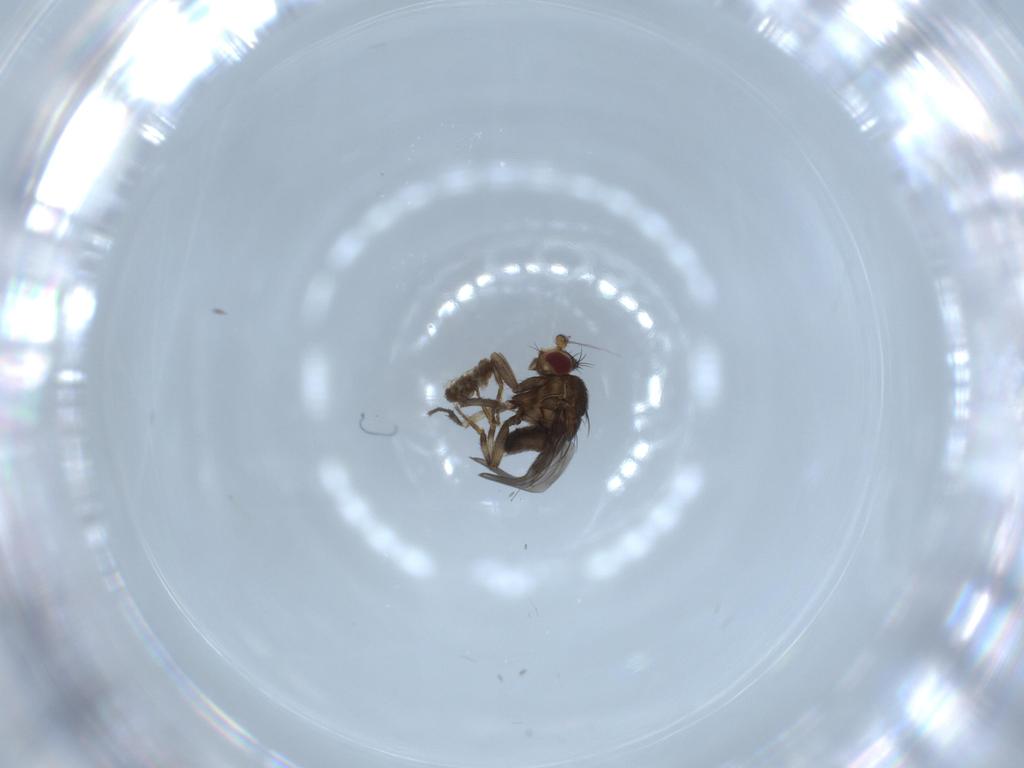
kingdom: Animalia
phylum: Arthropoda
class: Insecta
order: Diptera
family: Sphaeroceridae
